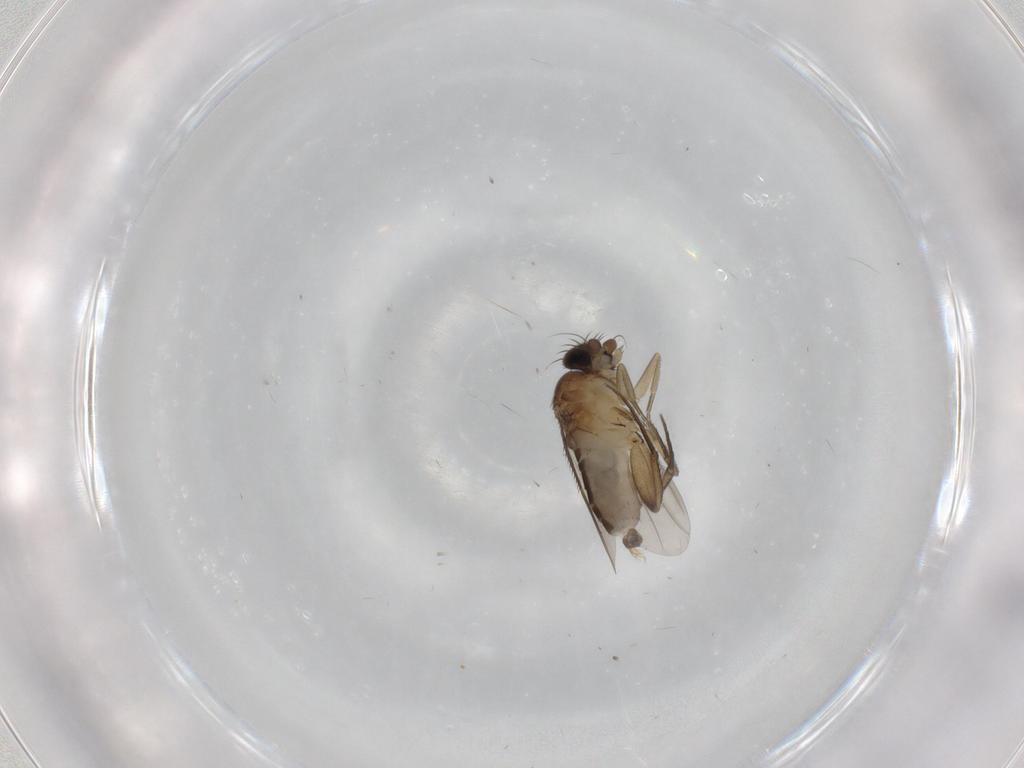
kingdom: Animalia
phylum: Arthropoda
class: Insecta
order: Diptera
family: Phoridae
